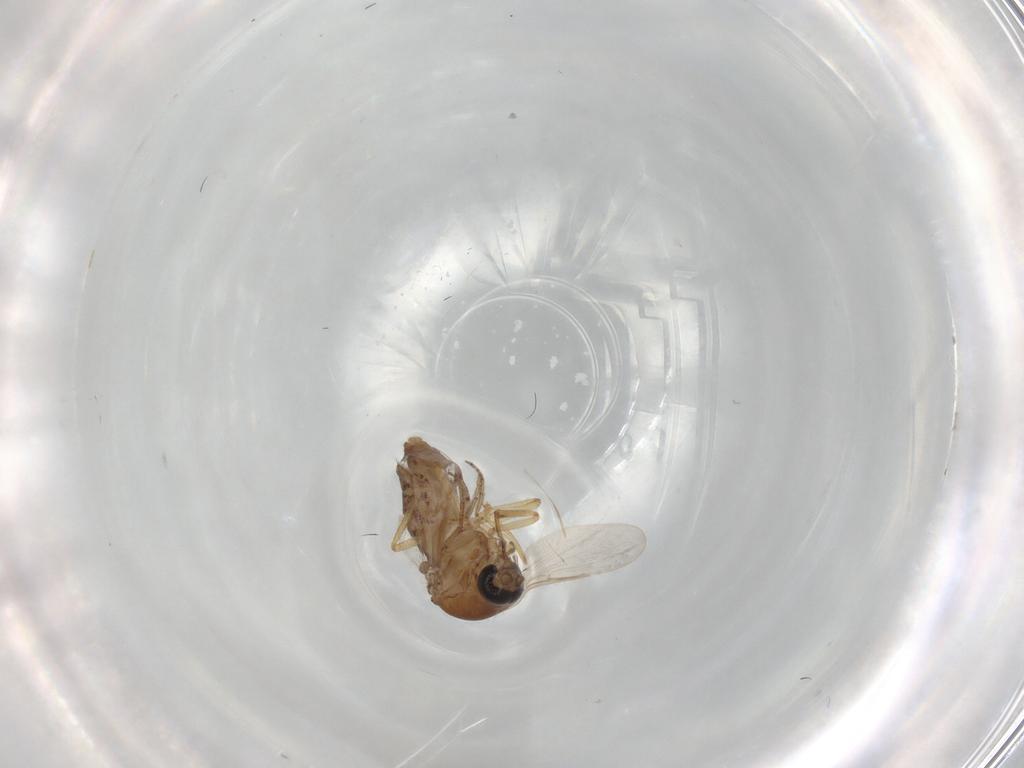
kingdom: Animalia
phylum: Arthropoda
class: Insecta
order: Diptera
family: Ceratopogonidae
